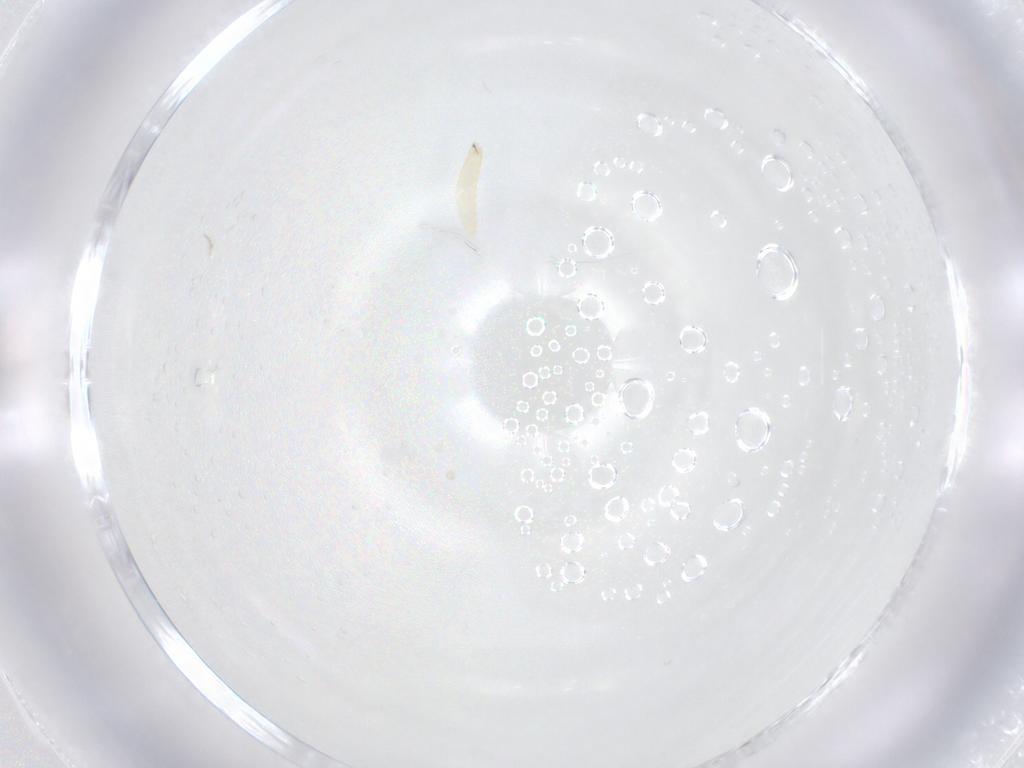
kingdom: Animalia
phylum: Arthropoda
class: Insecta
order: Diptera
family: Tachinidae
